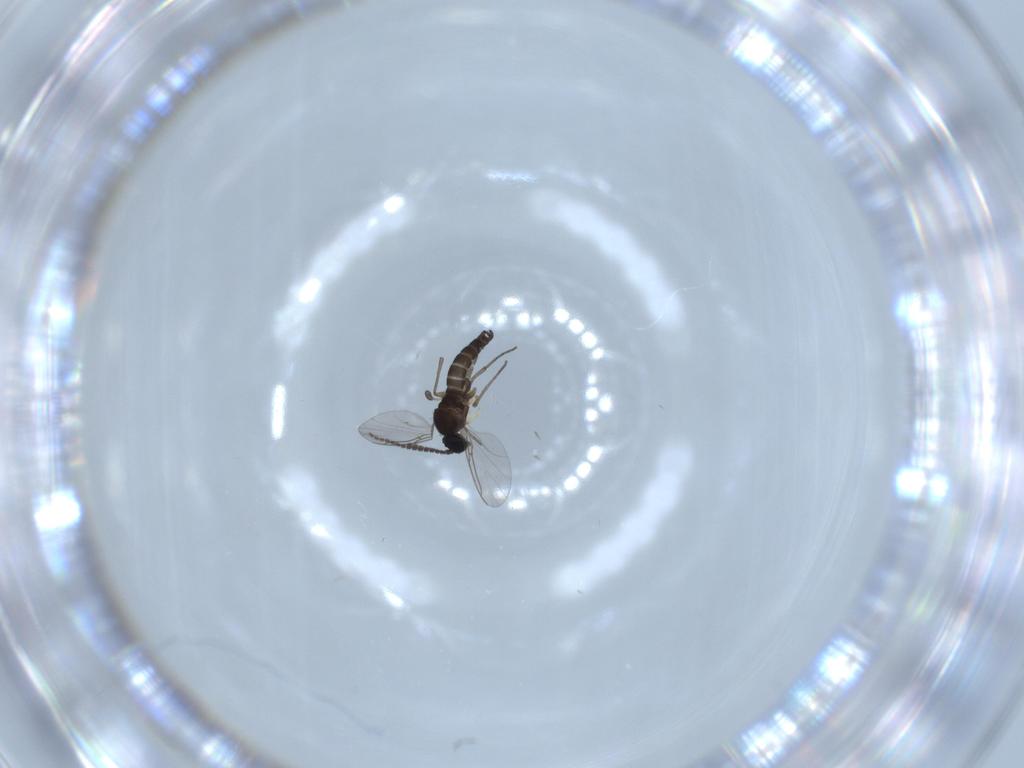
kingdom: Animalia
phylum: Arthropoda
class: Insecta
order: Diptera
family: Sciaridae
